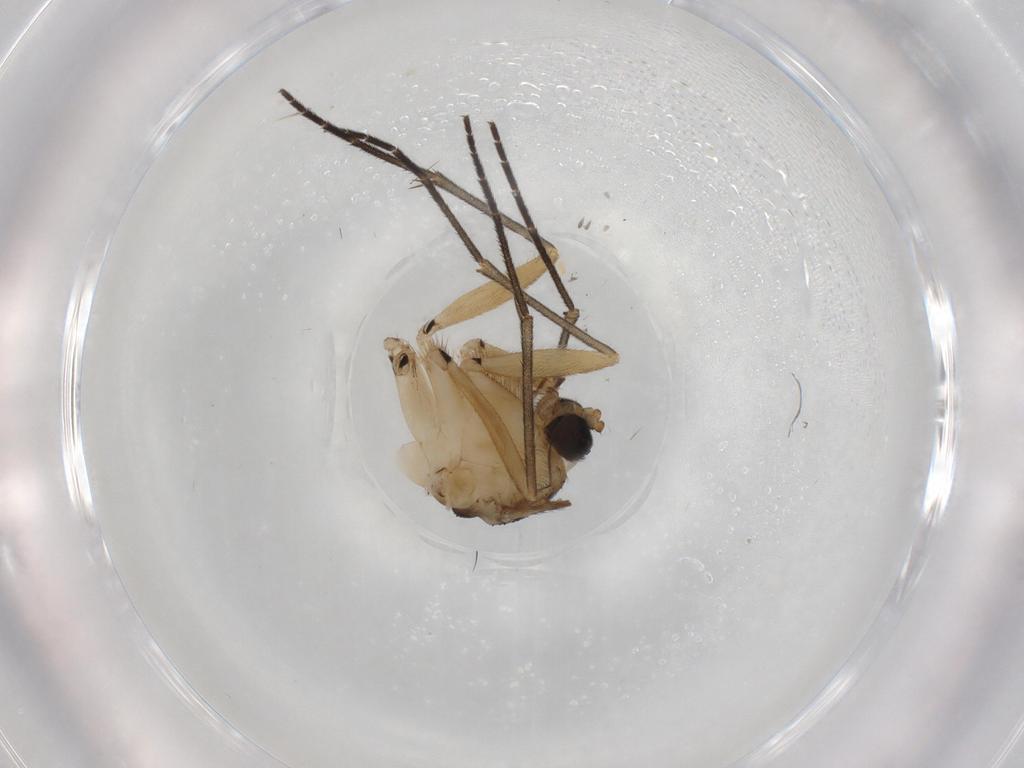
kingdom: Animalia
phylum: Arthropoda
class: Insecta
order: Diptera
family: Sciaridae
